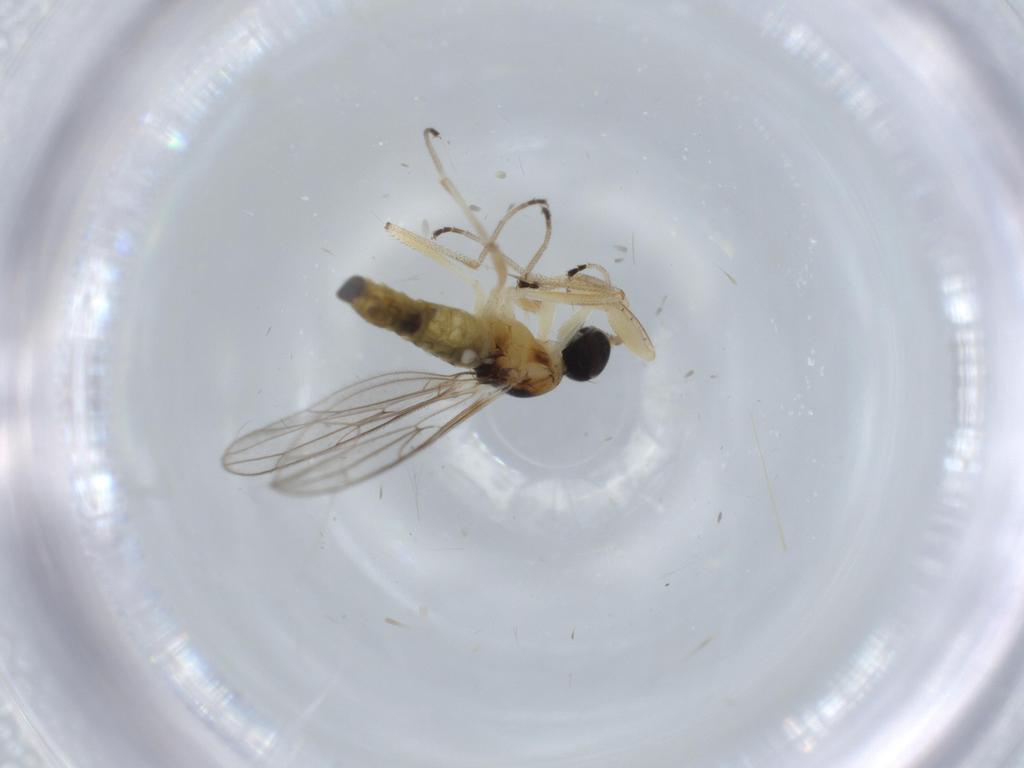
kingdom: Animalia
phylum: Arthropoda
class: Insecta
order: Diptera
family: Empididae
